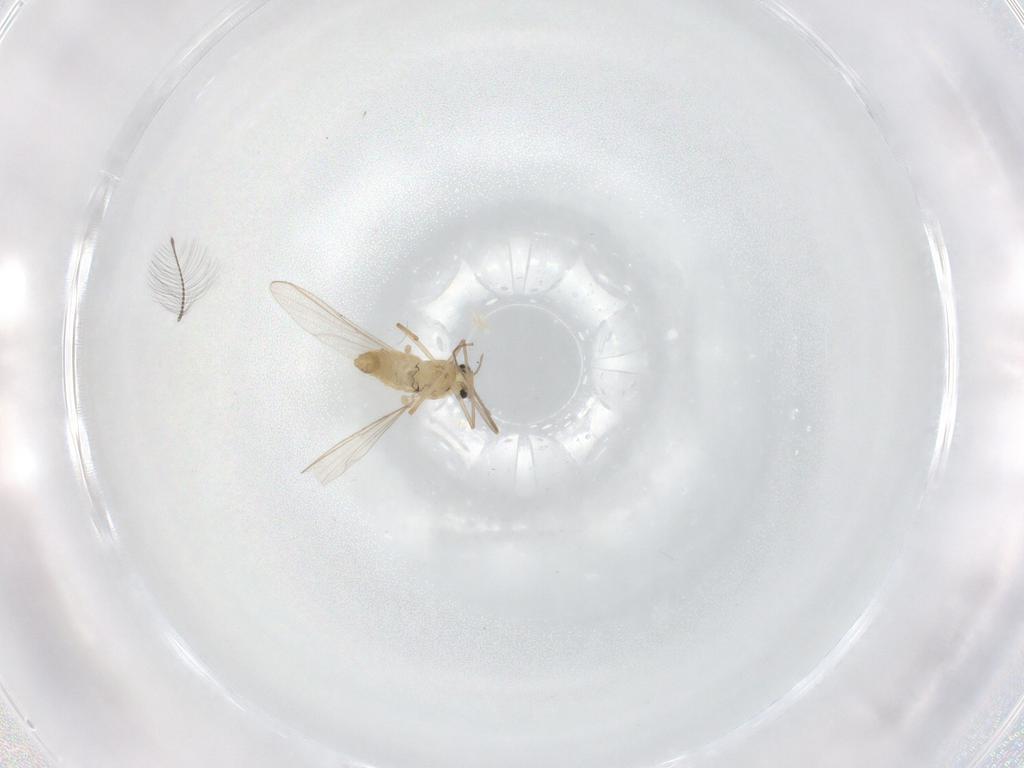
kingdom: Animalia
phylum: Arthropoda
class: Insecta
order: Diptera
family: Chironomidae
